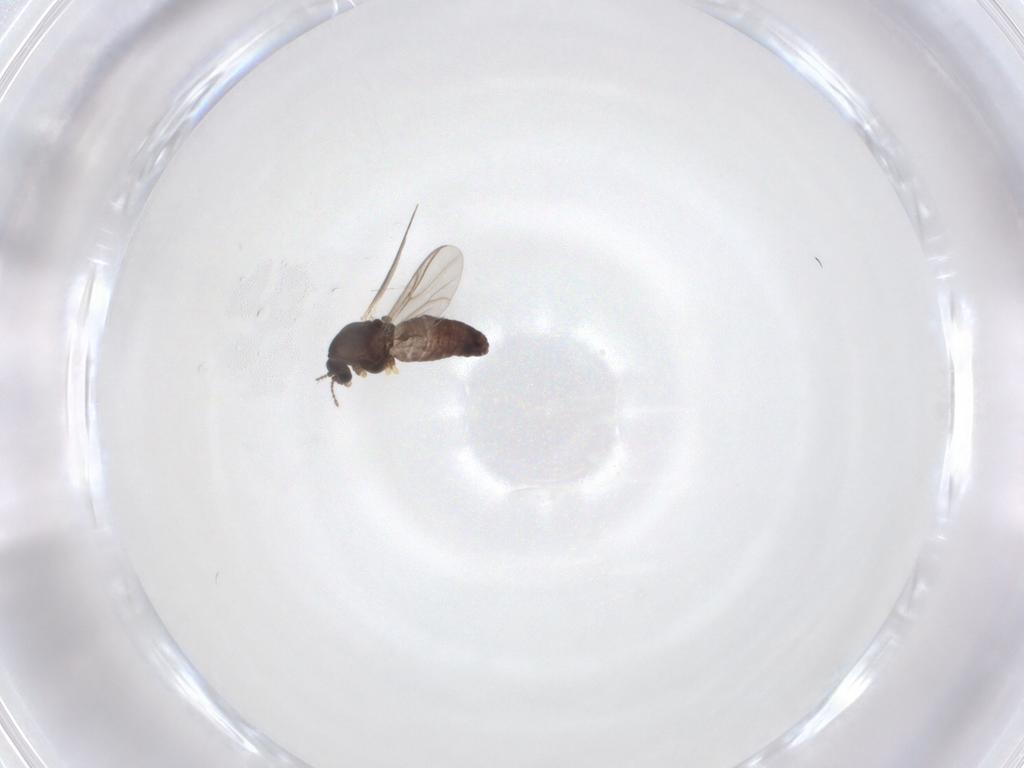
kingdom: Animalia
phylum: Arthropoda
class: Insecta
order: Diptera
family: Chironomidae
